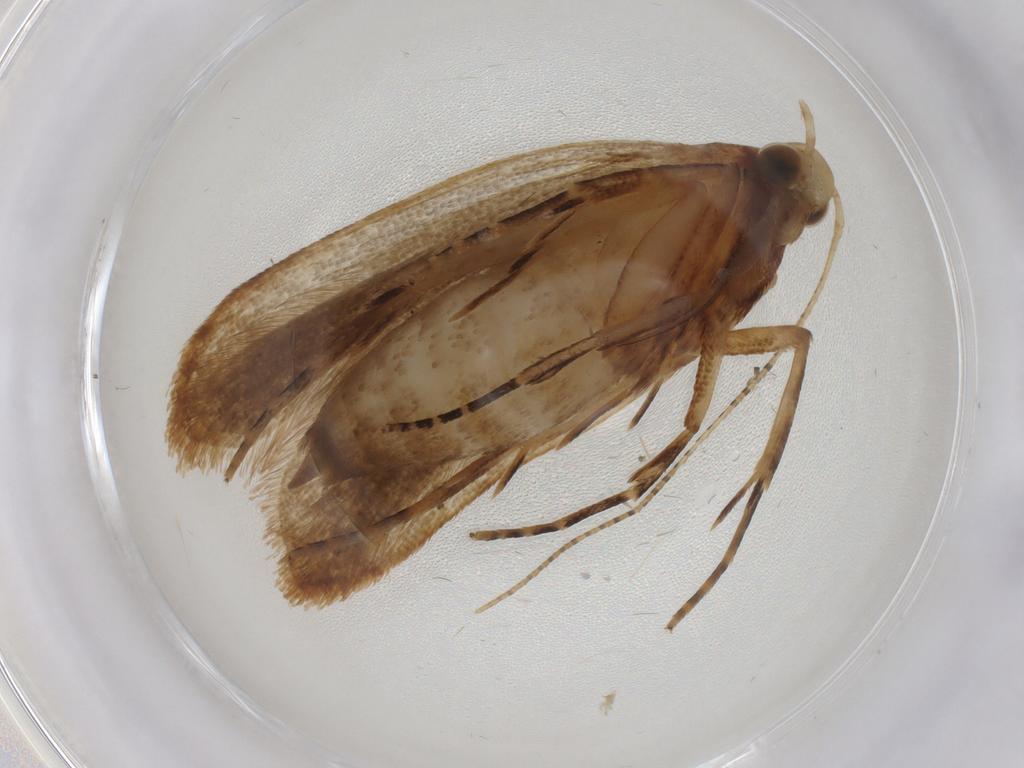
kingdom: Animalia
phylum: Arthropoda
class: Insecta
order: Lepidoptera
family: Gelechiidae
